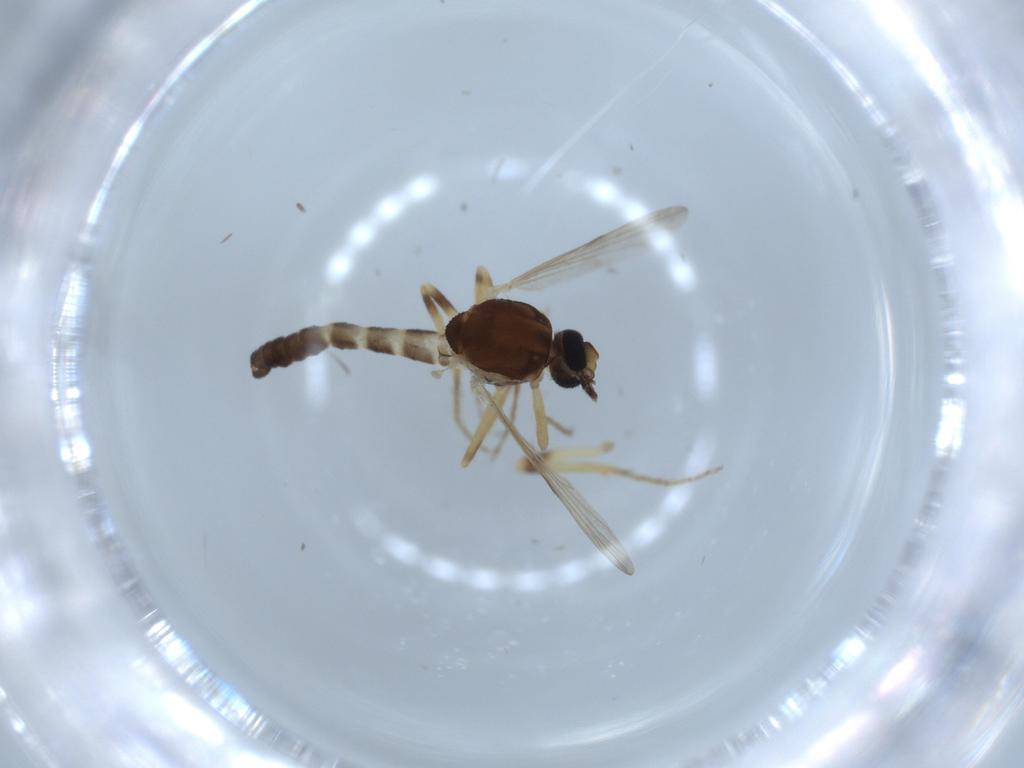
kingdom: Animalia
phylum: Arthropoda
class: Insecta
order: Diptera
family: Ceratopogonidae
